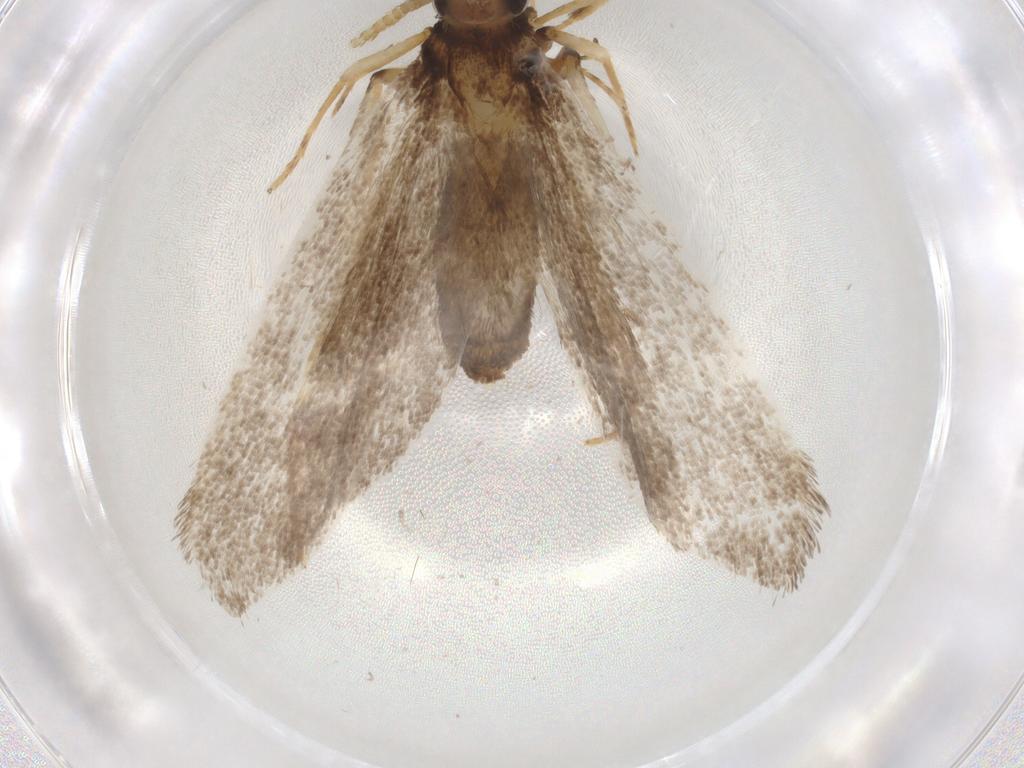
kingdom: Animalia
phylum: Arthropoda
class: Insecta
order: Lepidoptera
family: Lecithoceridae
